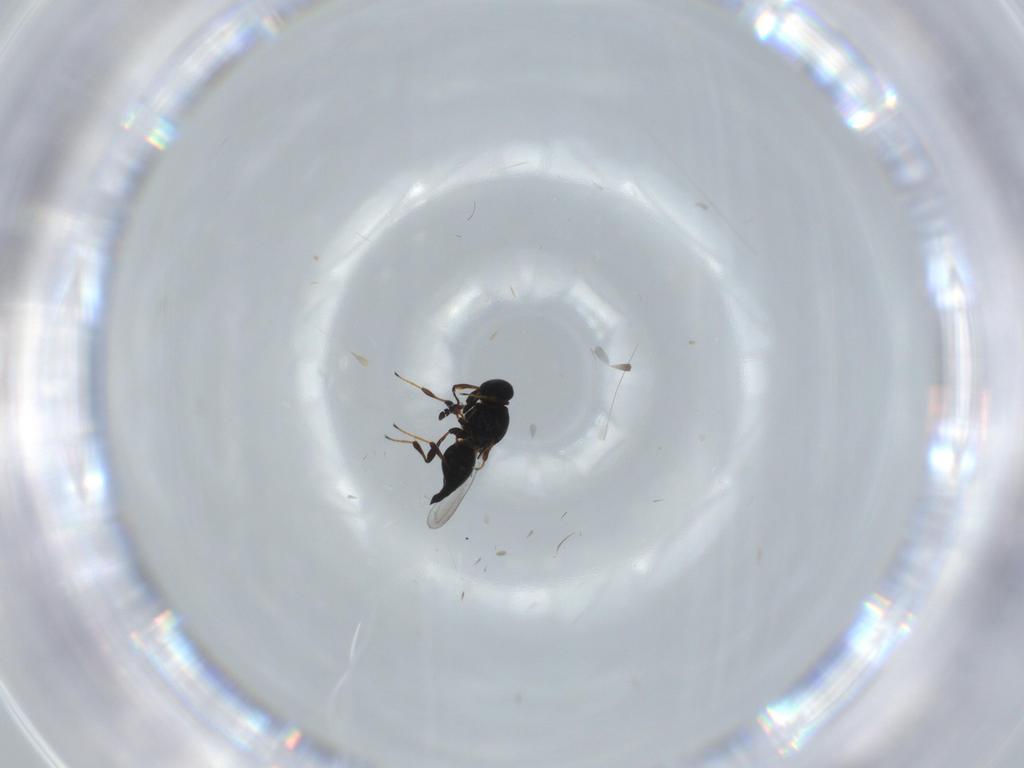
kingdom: Animalia
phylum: Arthropoda
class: Insecta
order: Hymenoptera
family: Platygastridae
